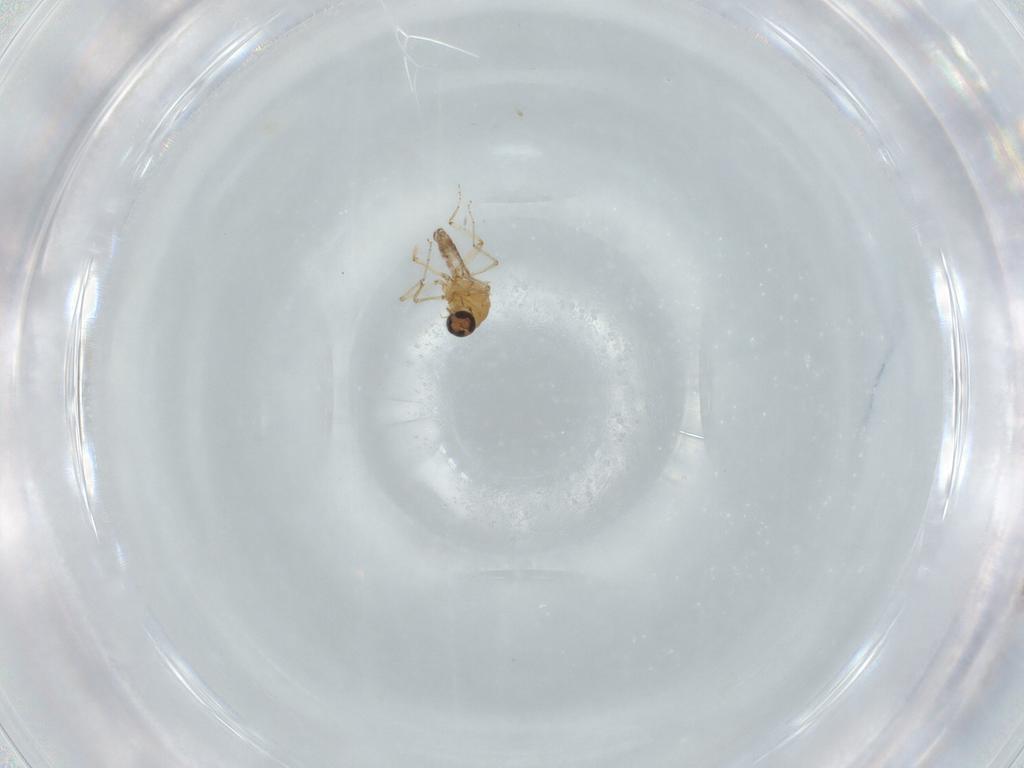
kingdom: Animalia
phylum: Arthropoda
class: Insecta
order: Diptera
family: Ceratopogonidae
